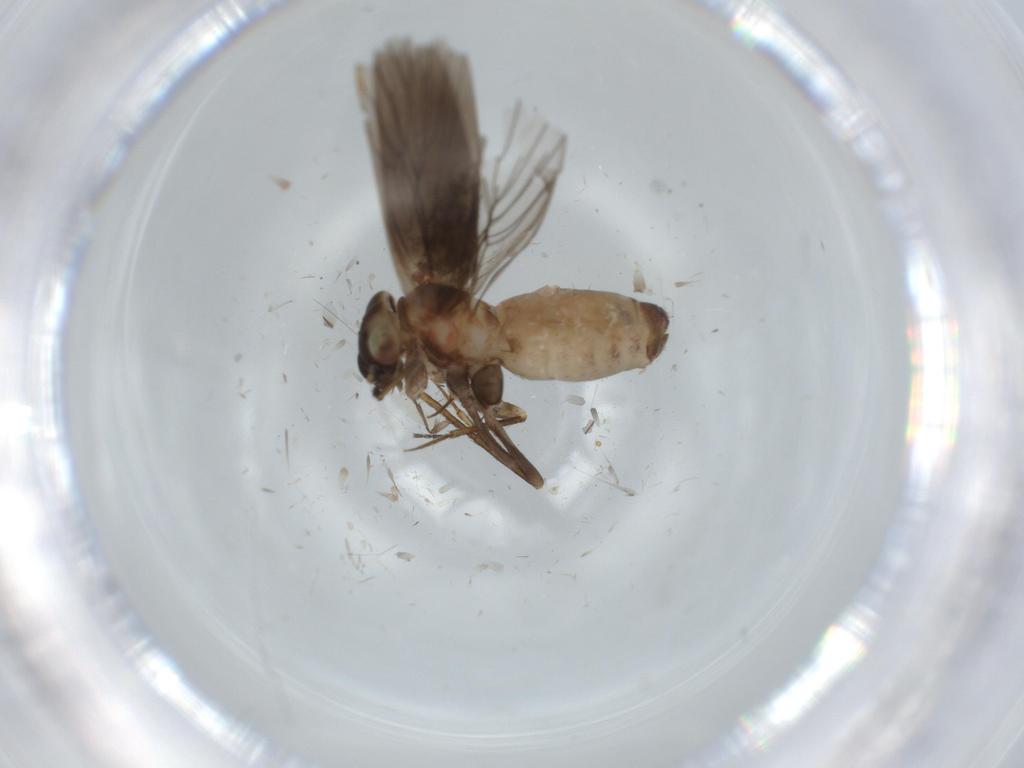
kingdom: Animalia
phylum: Arthropoda
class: Insecta
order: Psocodea
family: Lepidopsocidae
